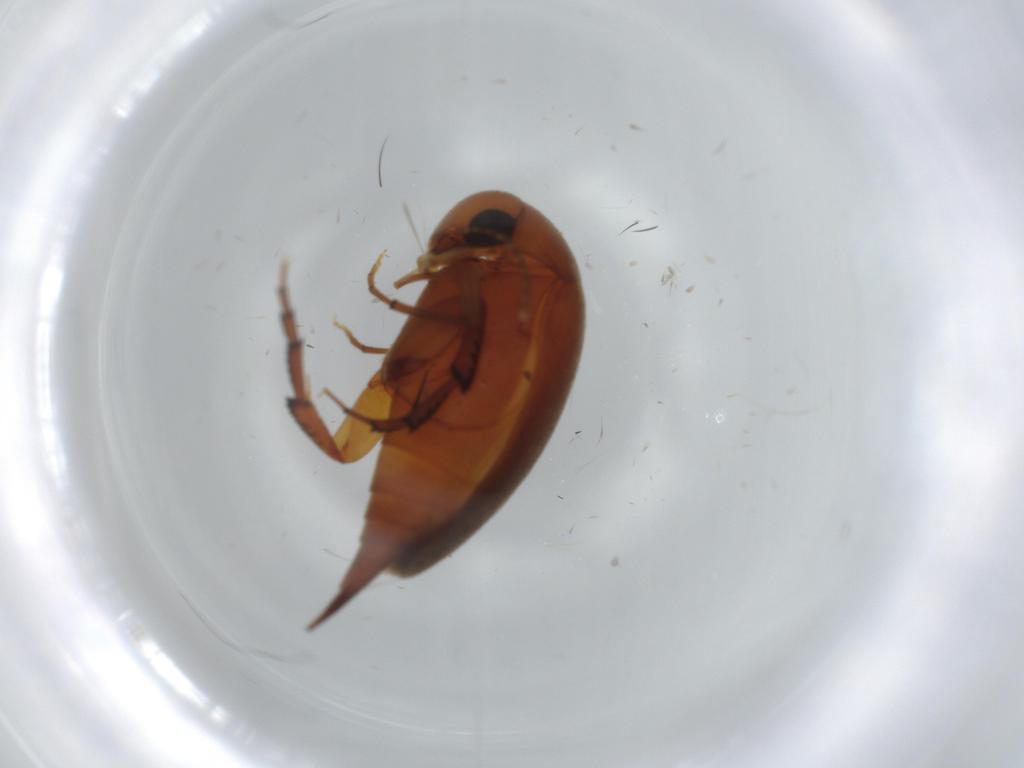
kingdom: Animalia
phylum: Arthropoda
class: Insecta
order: Coleoptera
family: Mordellidae
